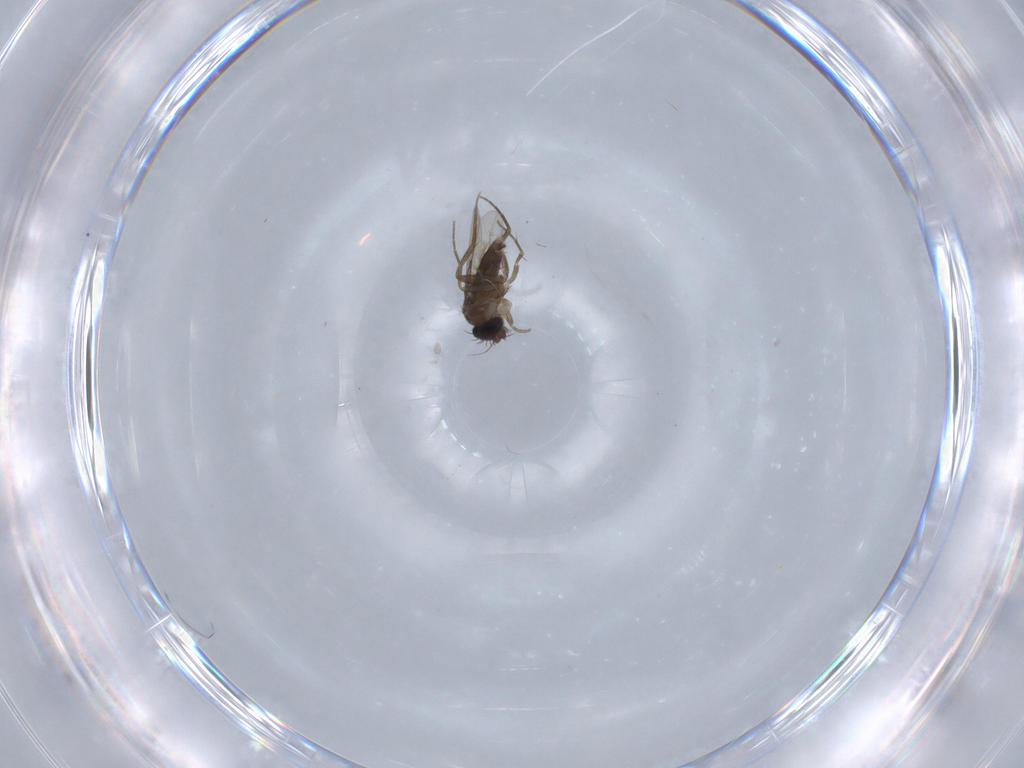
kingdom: Animalia
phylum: Arthropoda
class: Insecta
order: Diptera
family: Phoridae
